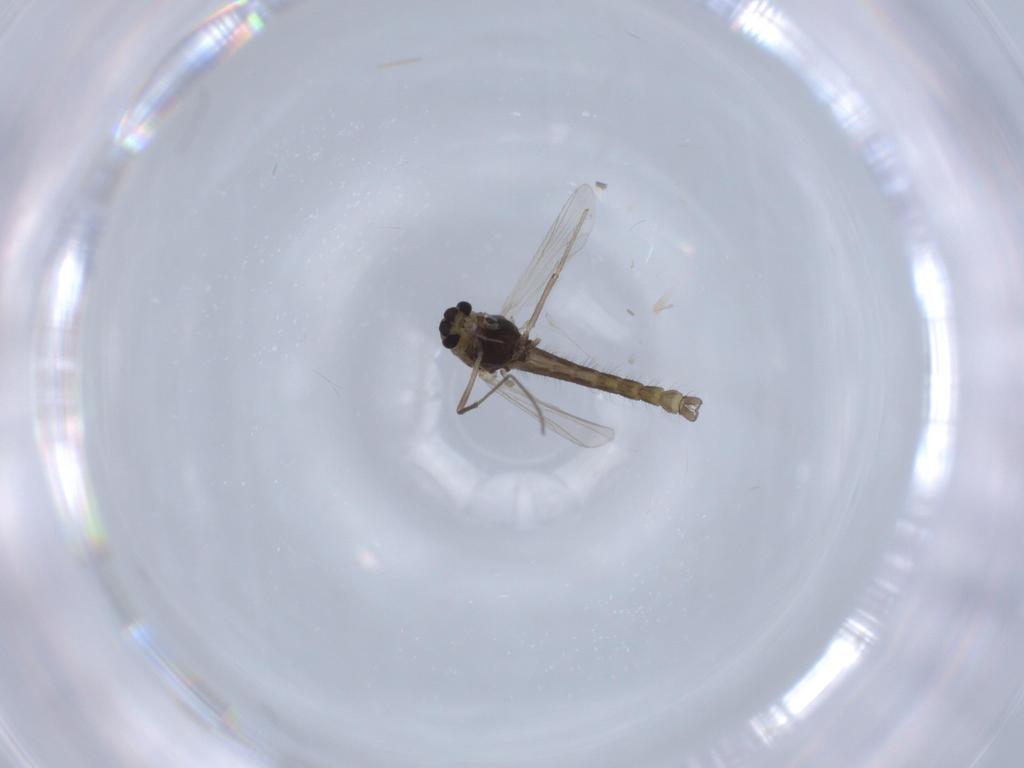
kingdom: Animalia
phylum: Arthropoda
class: Insecta
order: Diptera
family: Chironomidae
